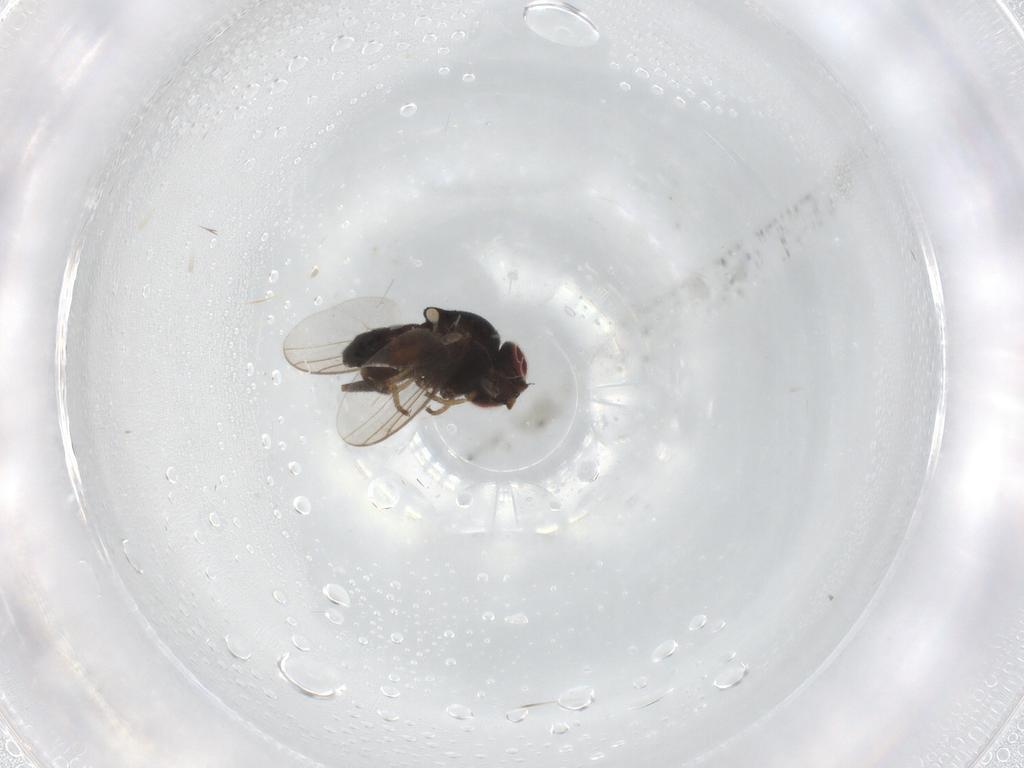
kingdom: Animalia
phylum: Arthropoda
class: Insecta
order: Diptera
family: Chloropidae
